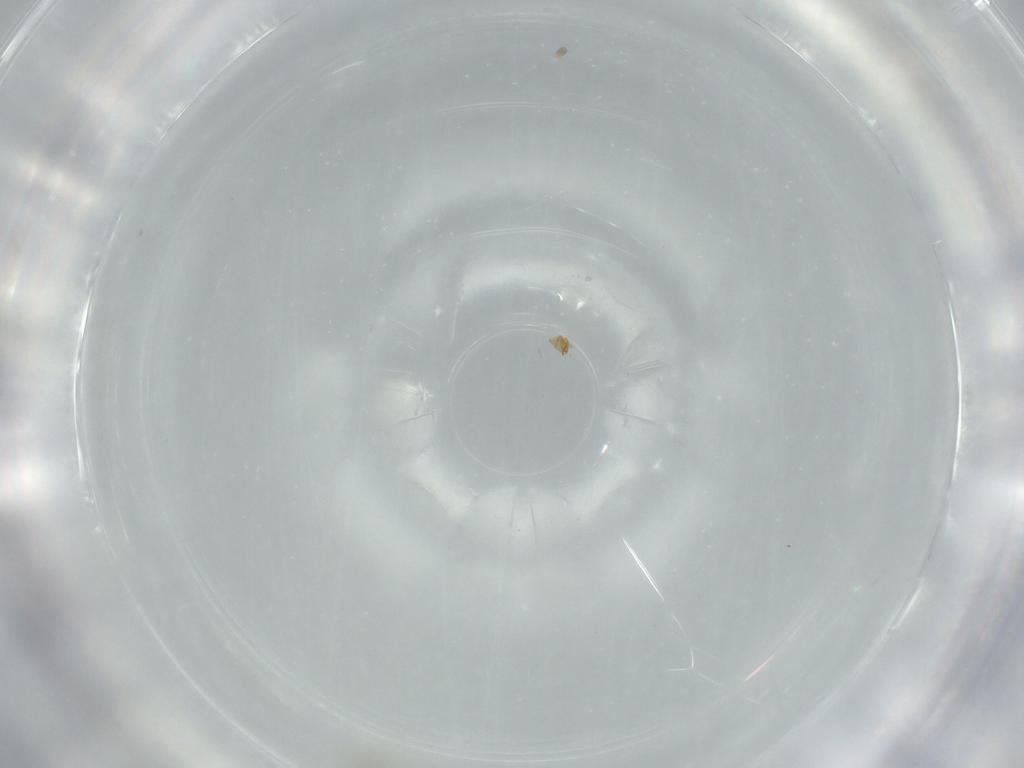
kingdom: Animalia
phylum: Arthropoda
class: Insecta
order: Diptera
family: Cecidomyiidae
